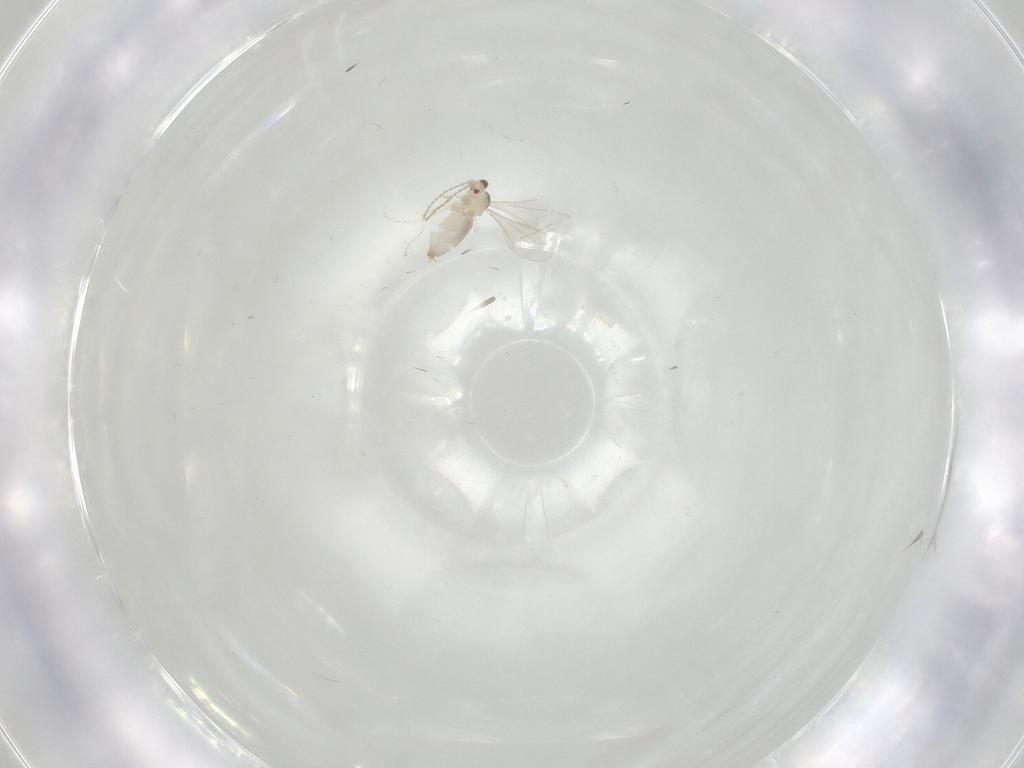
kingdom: Animalia
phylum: Arthropoda
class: Insecta
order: Diptera
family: Cecidomyiidae
